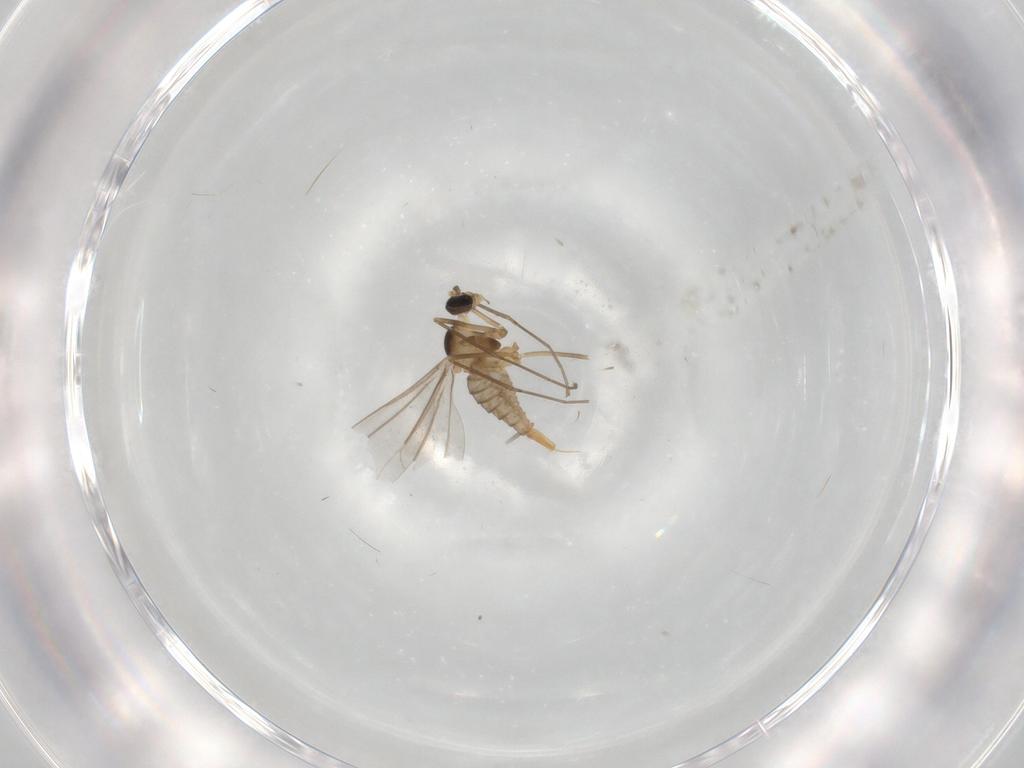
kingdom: Animalia
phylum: Arthropoda
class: Insecta
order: Diptera
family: Cecidomyiidae
